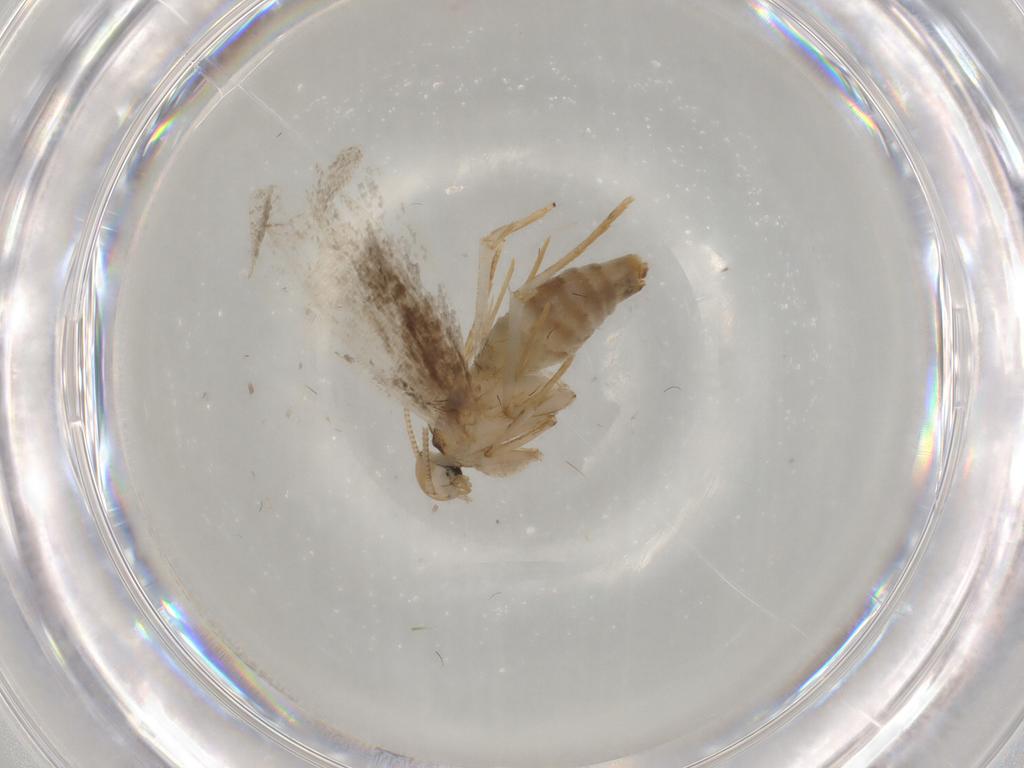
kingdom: Animalia
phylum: Arthropoda
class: Insecta
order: Lepidoptera
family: Tineidae
